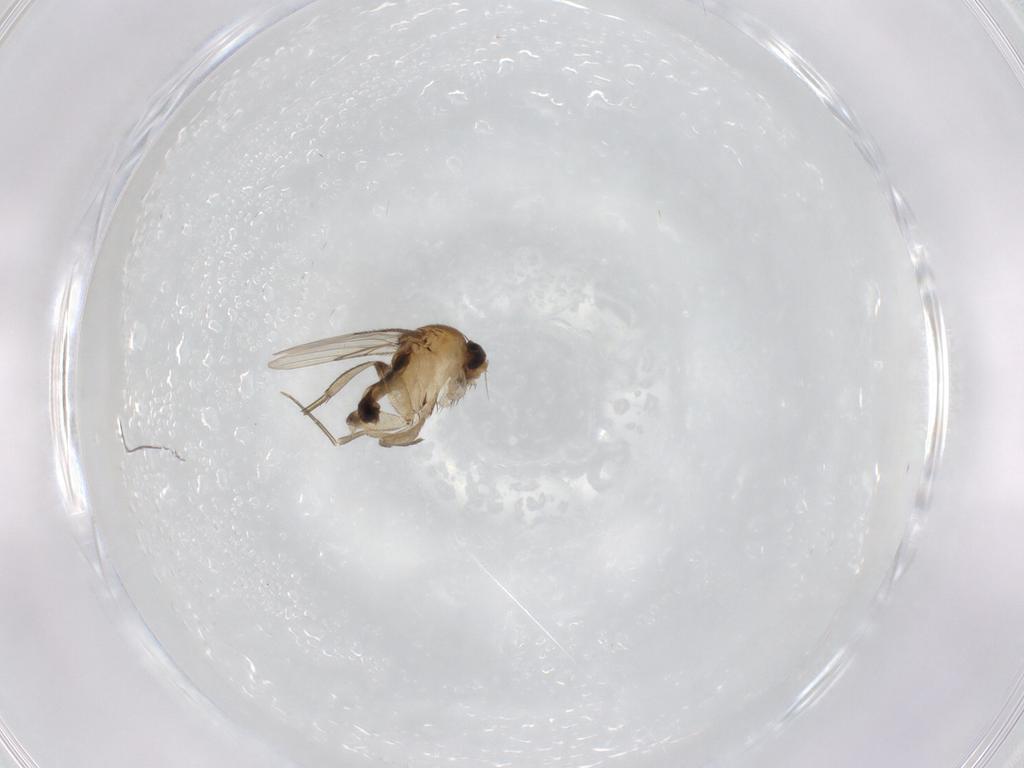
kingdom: Animalia
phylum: Arthropoda
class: Insecta
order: Diptera
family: Phoridae
